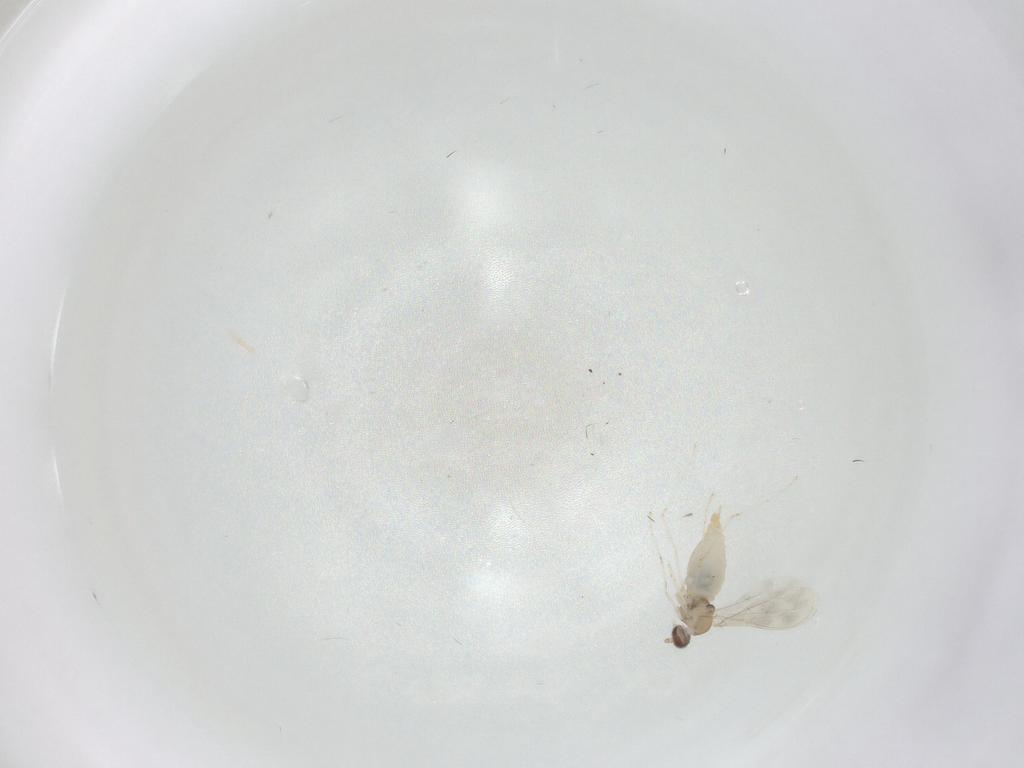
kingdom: Animalia
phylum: Arthropoda
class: Insecta
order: Diptera
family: Cecidomyiidae
